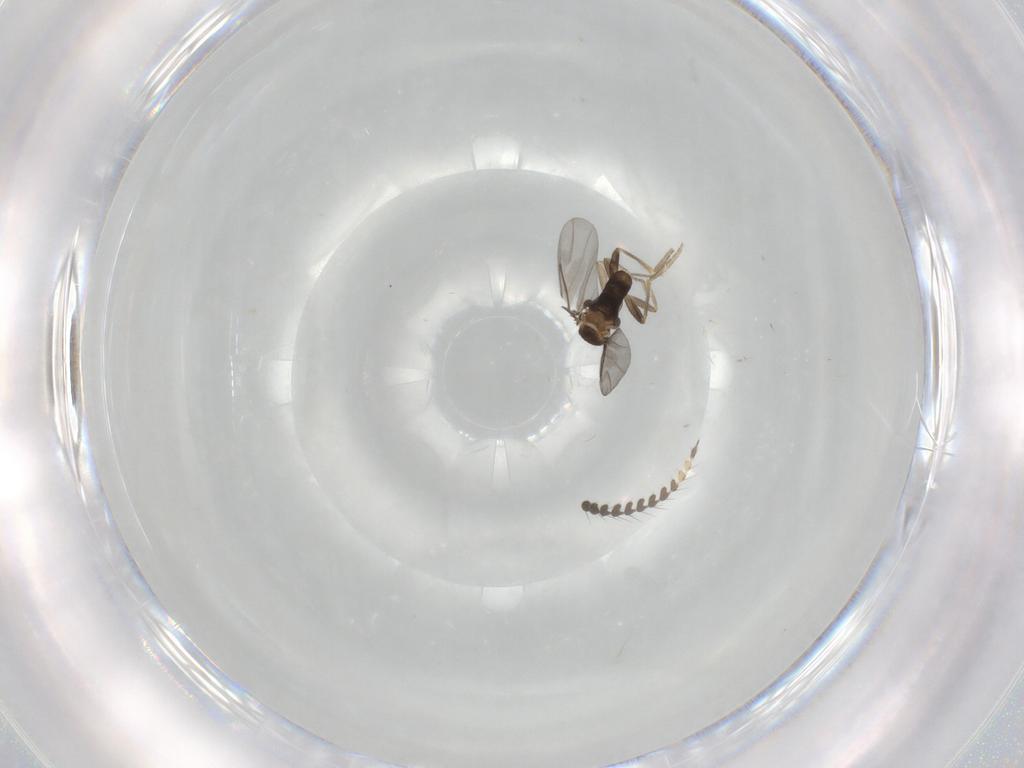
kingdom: Animalia
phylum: Arthropoda
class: Insecta
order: Diptera
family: Limoniidae
